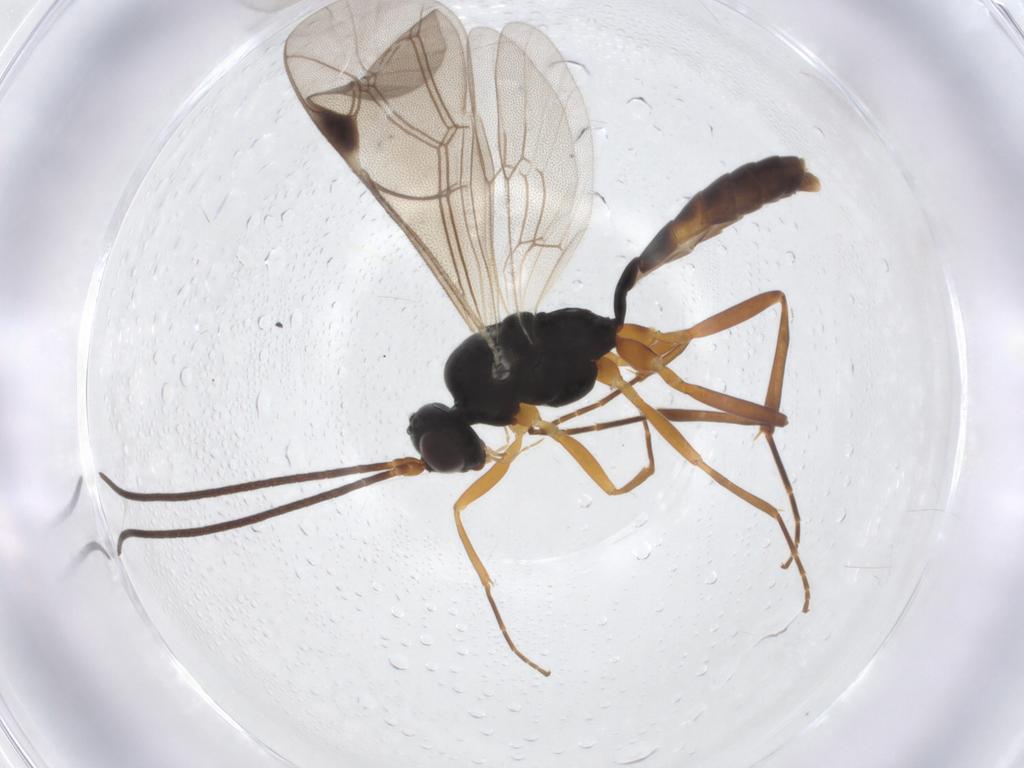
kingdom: Animalia
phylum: Arthropoda
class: Insecta
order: Hymenoptera
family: Ichneumonidae
